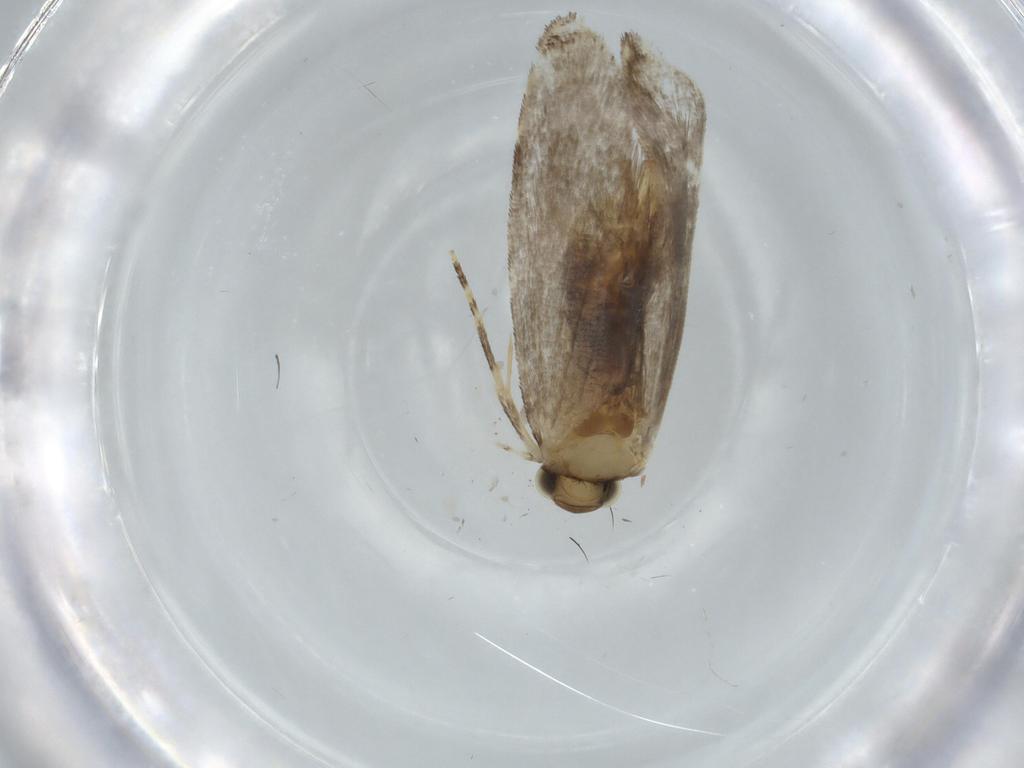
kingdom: Animalia
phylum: Arthropoda
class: Insecta
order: Lepidoptera
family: Tineidae
